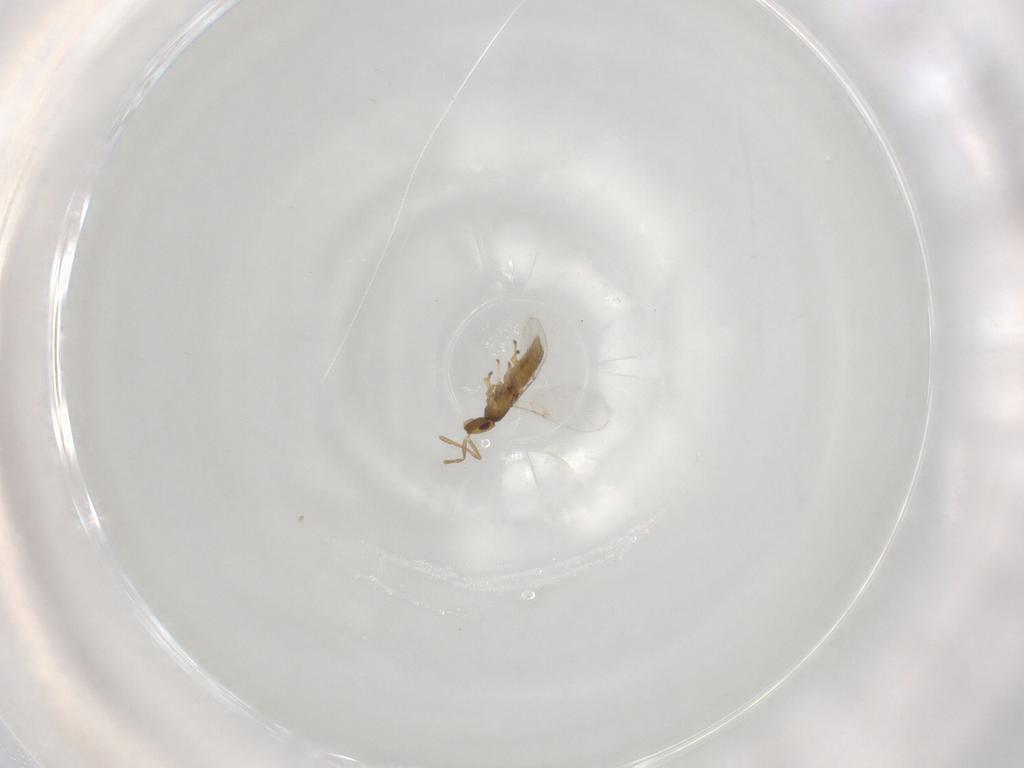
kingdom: Animalia
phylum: Arthropoda
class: Insecta
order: Hymenoptera
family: Encyrtidae
